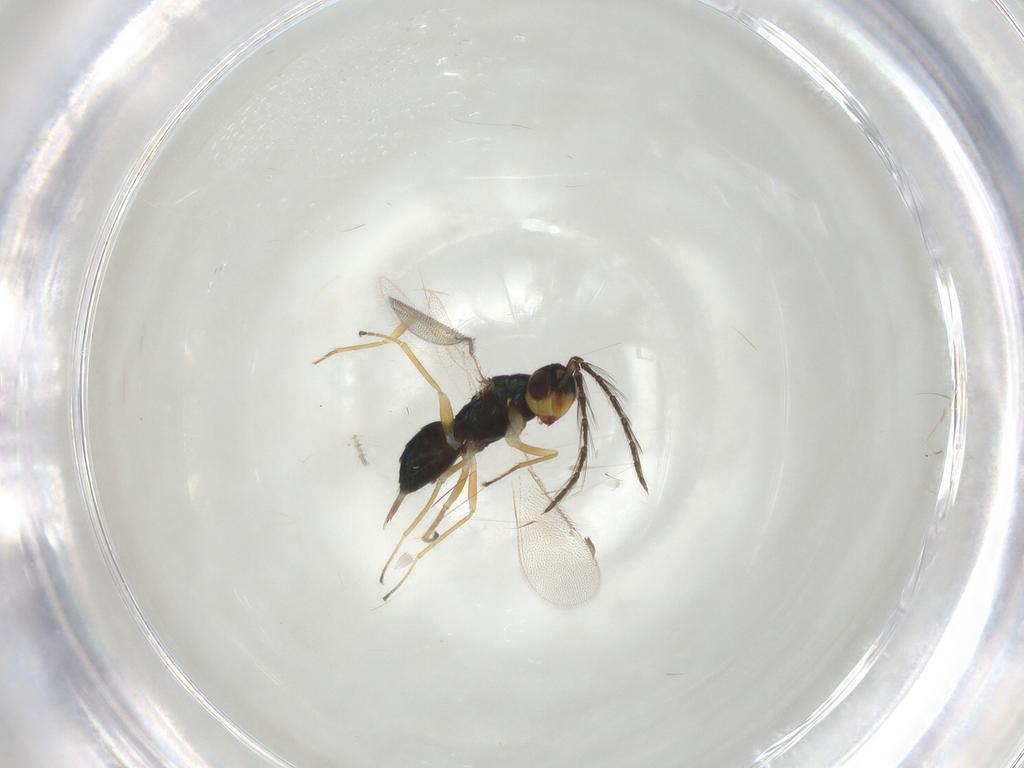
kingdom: Animalia
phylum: Arthropoda
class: Insecta
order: Hymenoptera
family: Eulophidae
